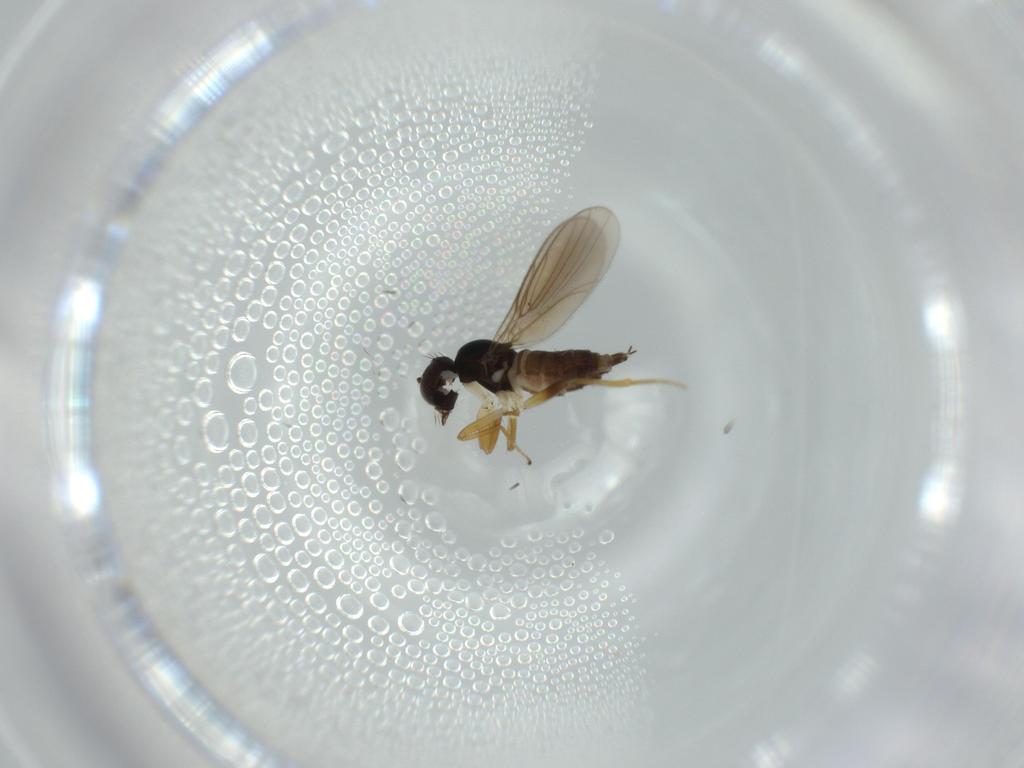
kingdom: Animalia
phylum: Arthropoda
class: Insecta
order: Diptera
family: Hybotidae
